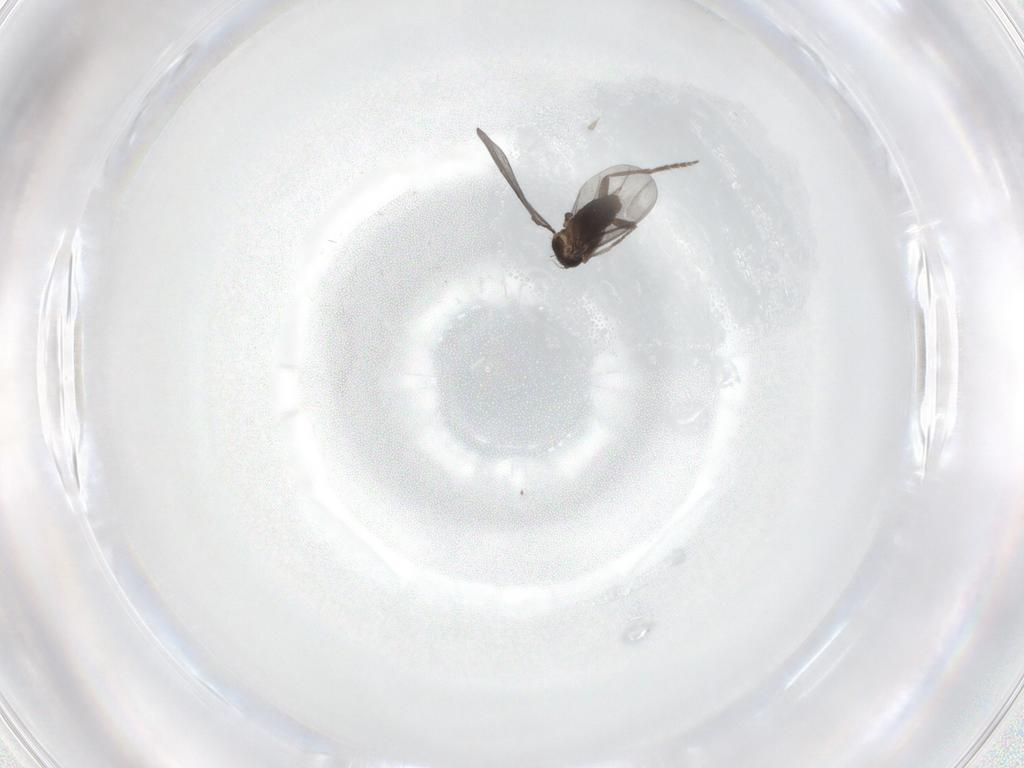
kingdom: Animalia
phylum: Arthropoda
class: Insecta
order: Diptera
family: Phoridae
